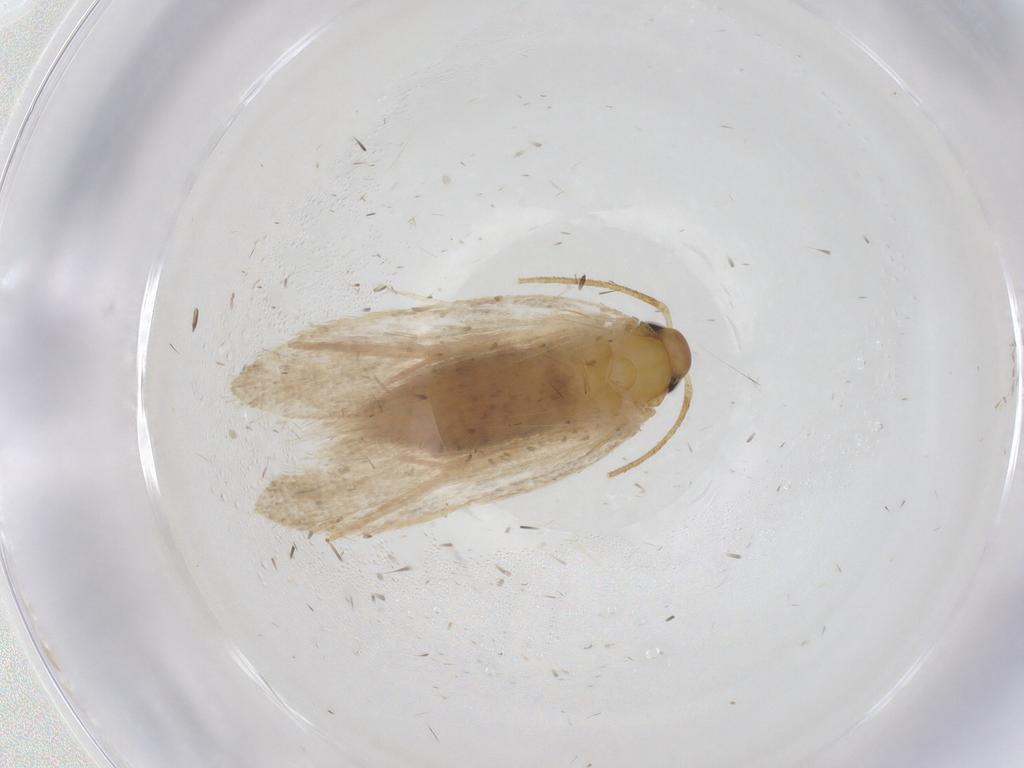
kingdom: Animalia
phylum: Arthropoda
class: Insecta
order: Lepidoptera
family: Oecophoridae
